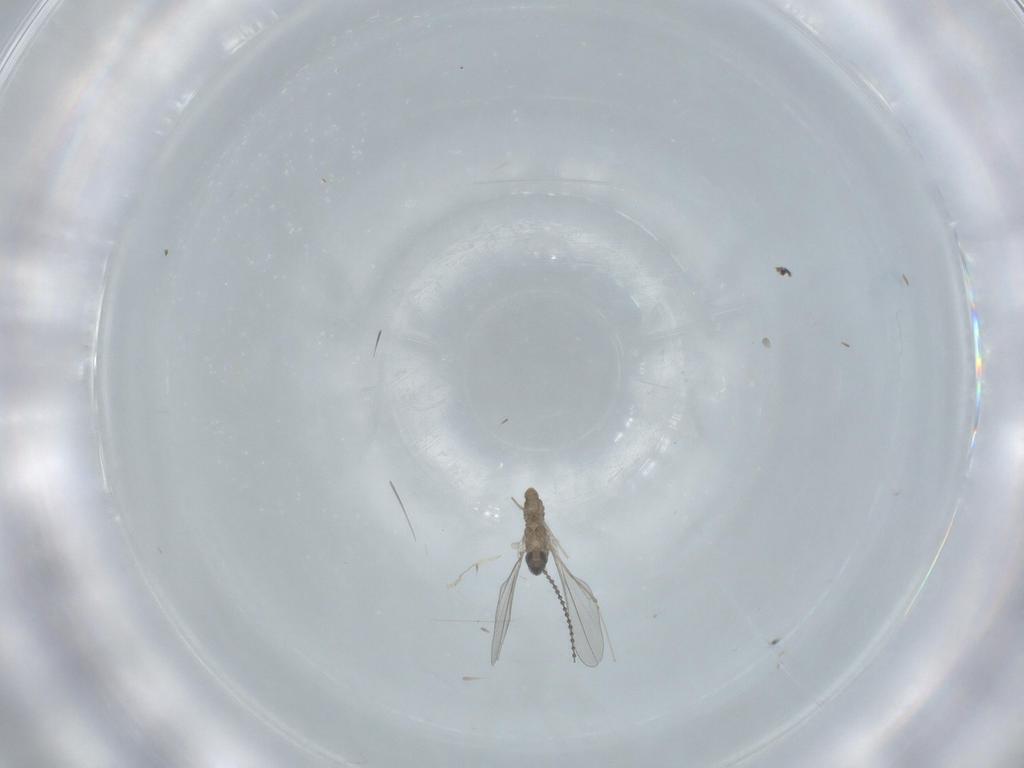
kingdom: Animalia
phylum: Arthropoda
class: Insecta
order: Diptera
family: Cecidomyiidae
